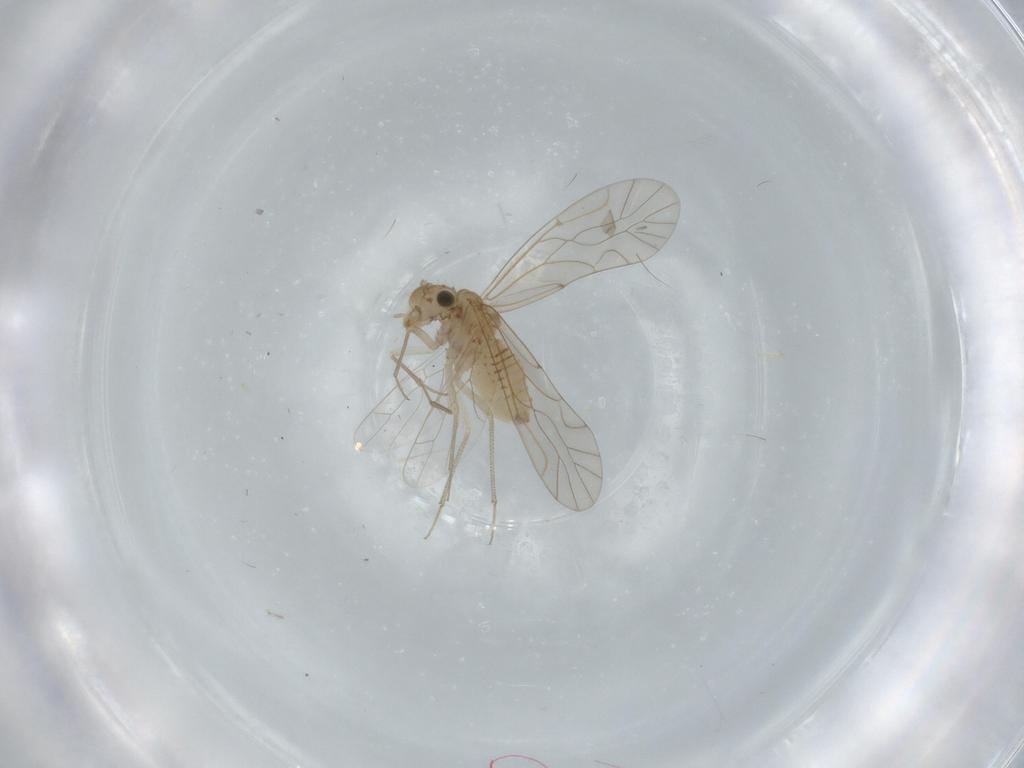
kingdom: Animalia
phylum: Arthropoda
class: Insecta
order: Psocodea
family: Lachesillidae
